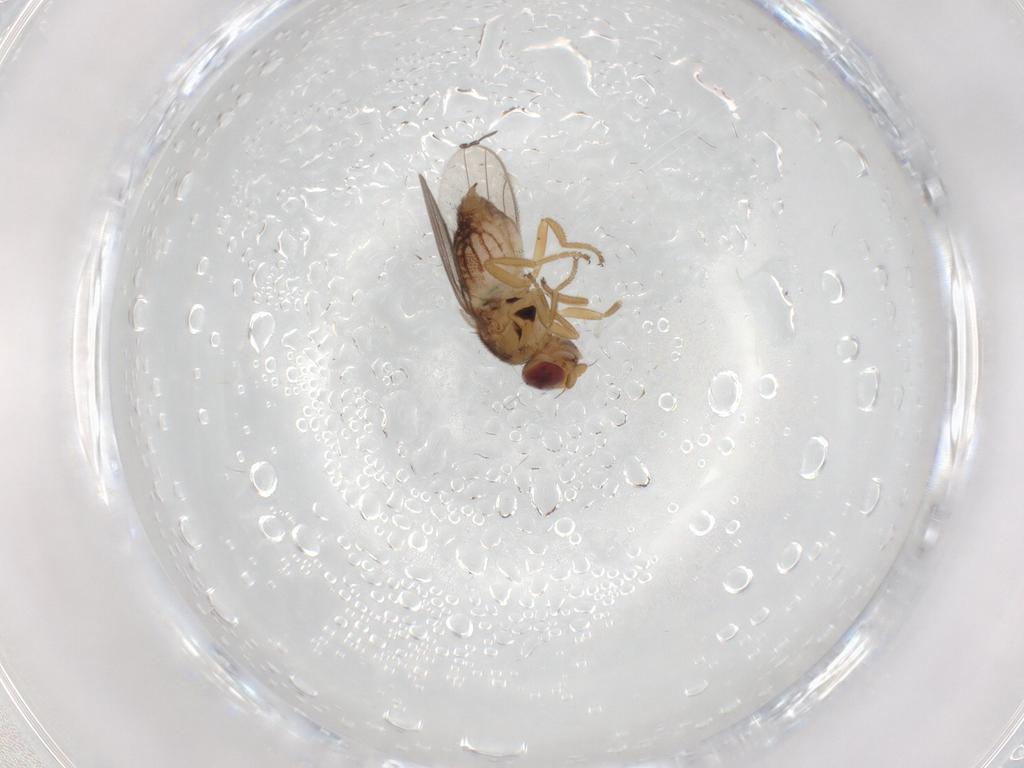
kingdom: Animalia
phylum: Arthropoda
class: Insecta
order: Diptera
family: Chloropidae
